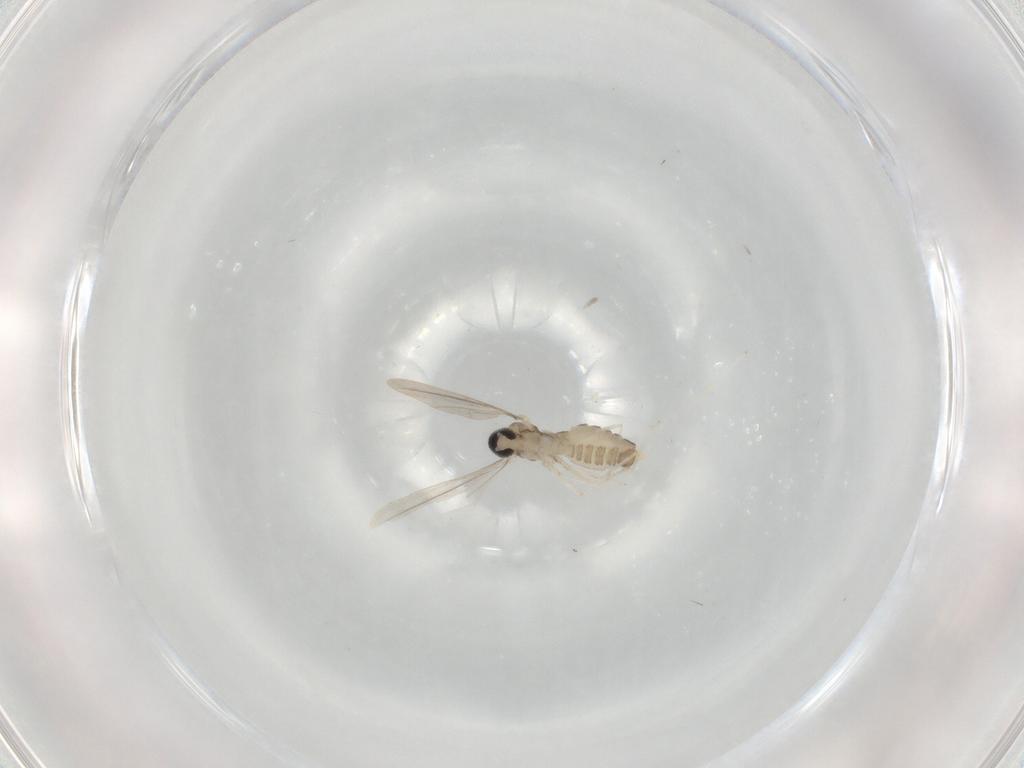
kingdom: Animalia
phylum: Arthropoda
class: Insecta
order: Diptera
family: Cecidomyiidae
